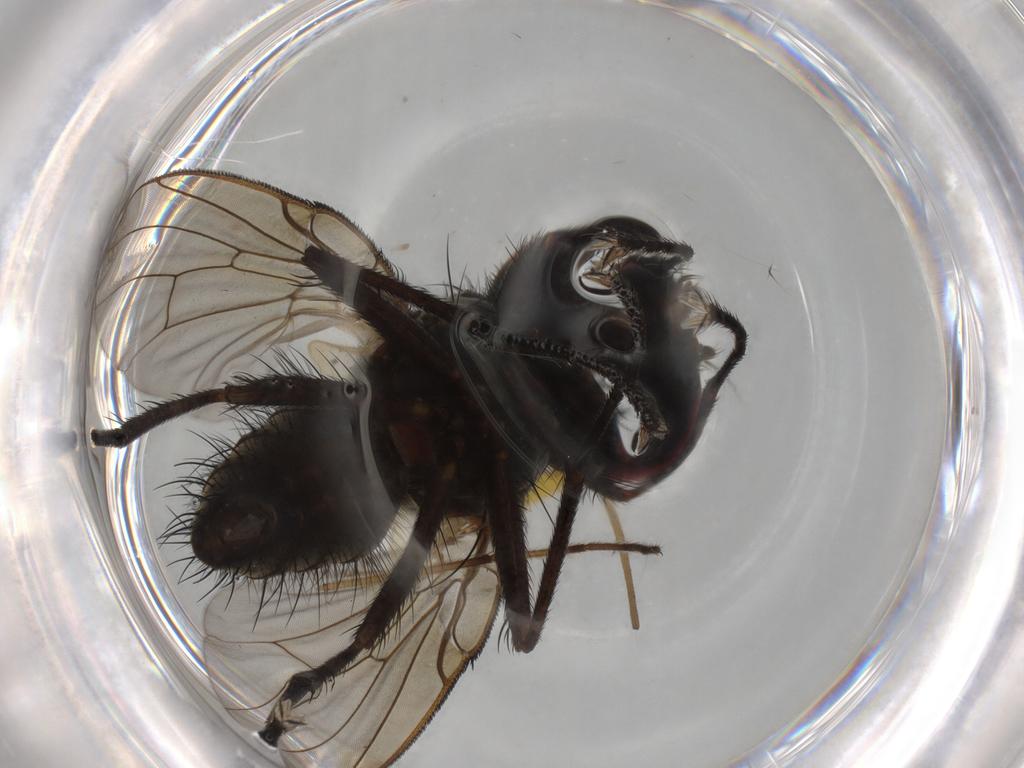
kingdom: Animalia
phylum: Arthropoda
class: Insecta
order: Diptera
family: Muscidae
